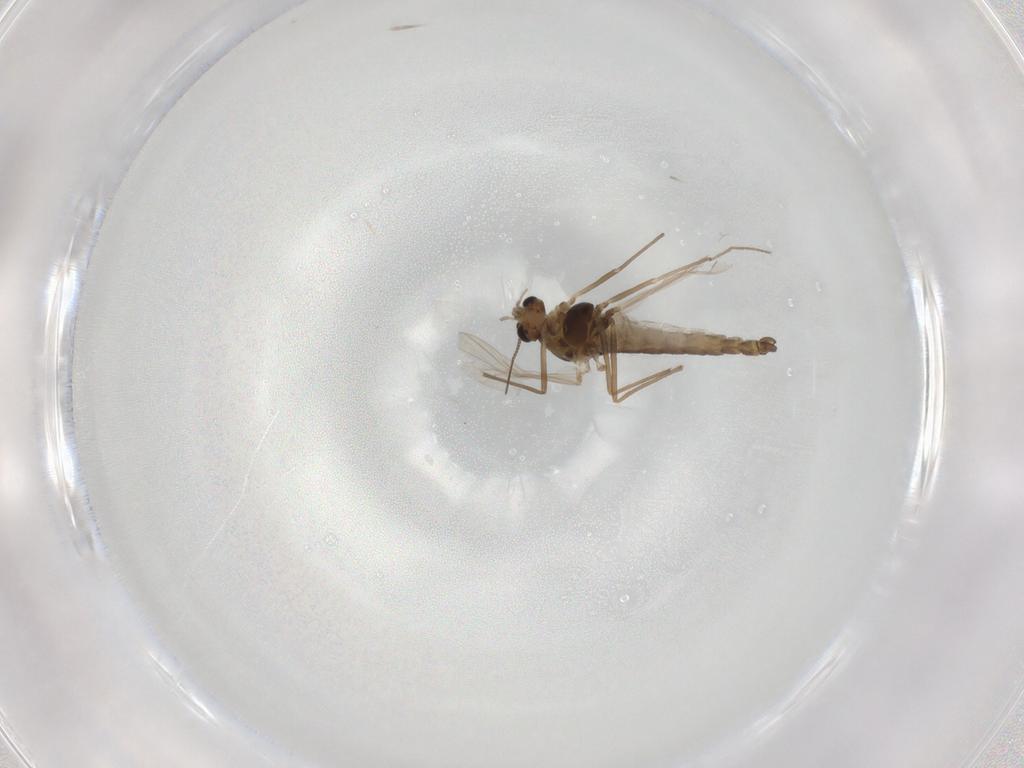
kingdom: Animalia
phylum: Arthropoda
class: Insecta
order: Diptera
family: Chironomidae
